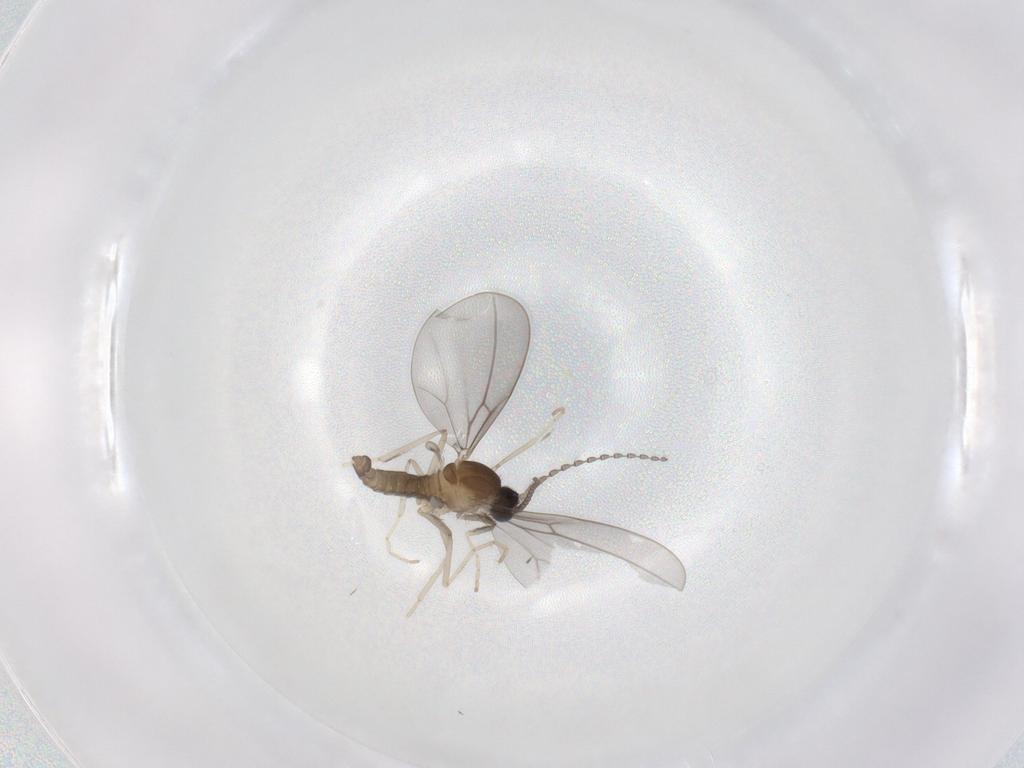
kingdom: Animalia
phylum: Arthropoda
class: Insecta
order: Diptera
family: Cecidomyiidae
